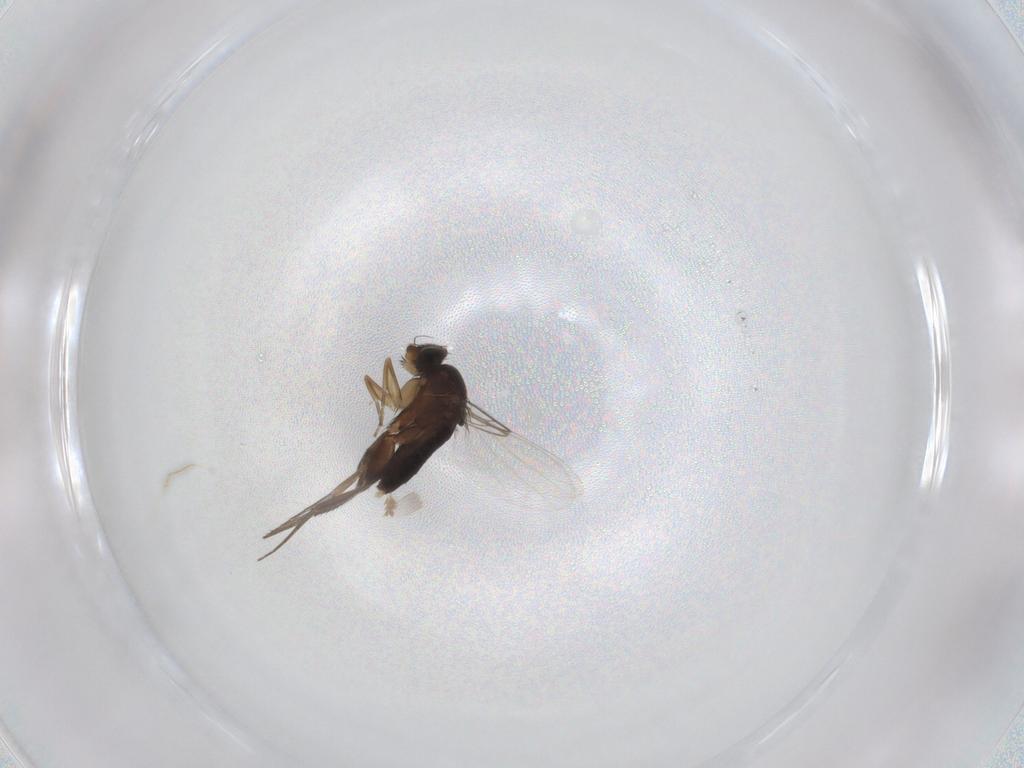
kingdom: Animalia
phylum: Arthropoda
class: Insecta
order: Diptera
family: Phoridae
